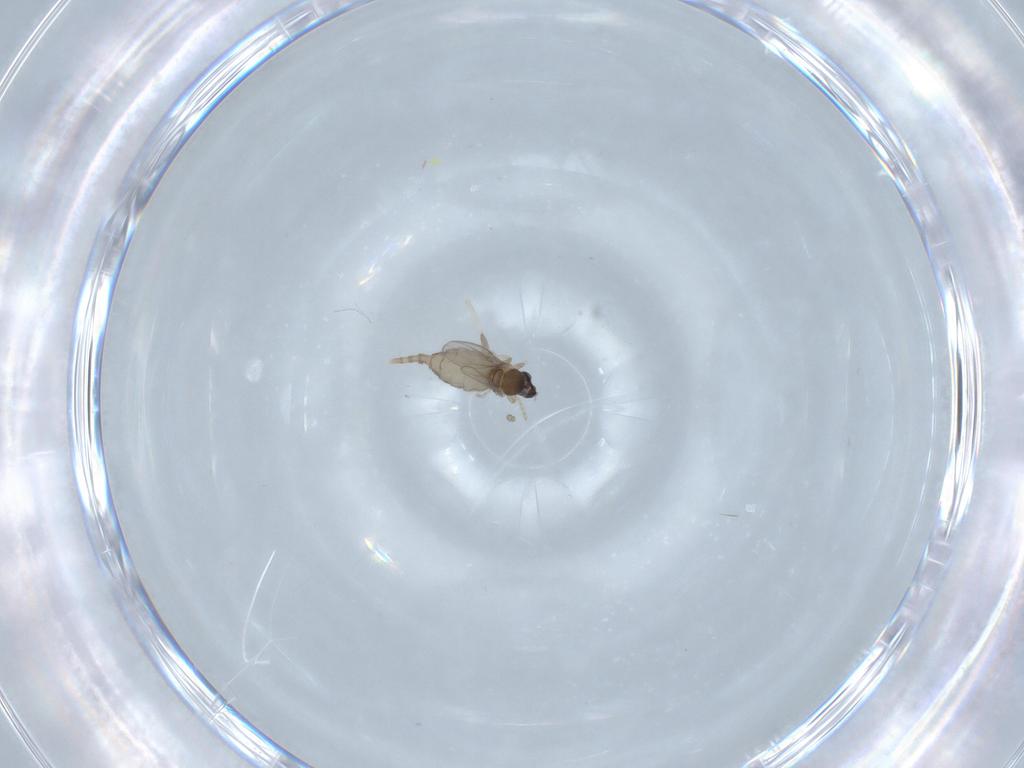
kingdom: Animalia
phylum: Arthropoda
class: Insecta
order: Diptera
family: Cecidomyiidae
